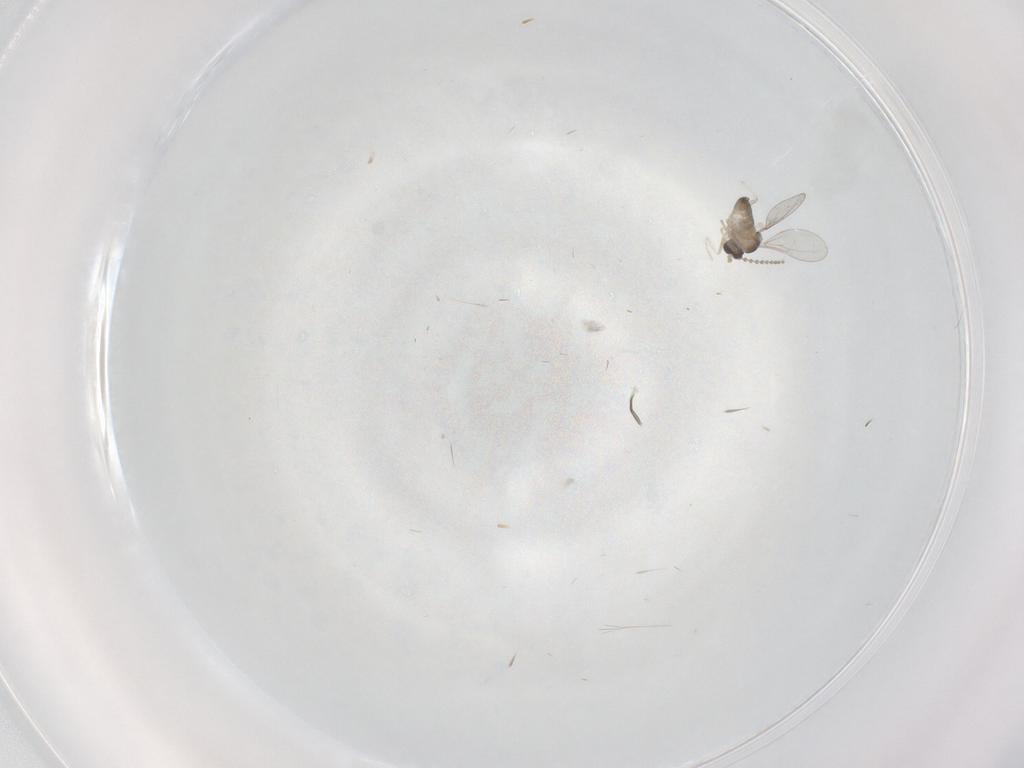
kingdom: Animalia
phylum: Arthropoda
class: Insecta
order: Diptera
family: Cecidomyiidae
